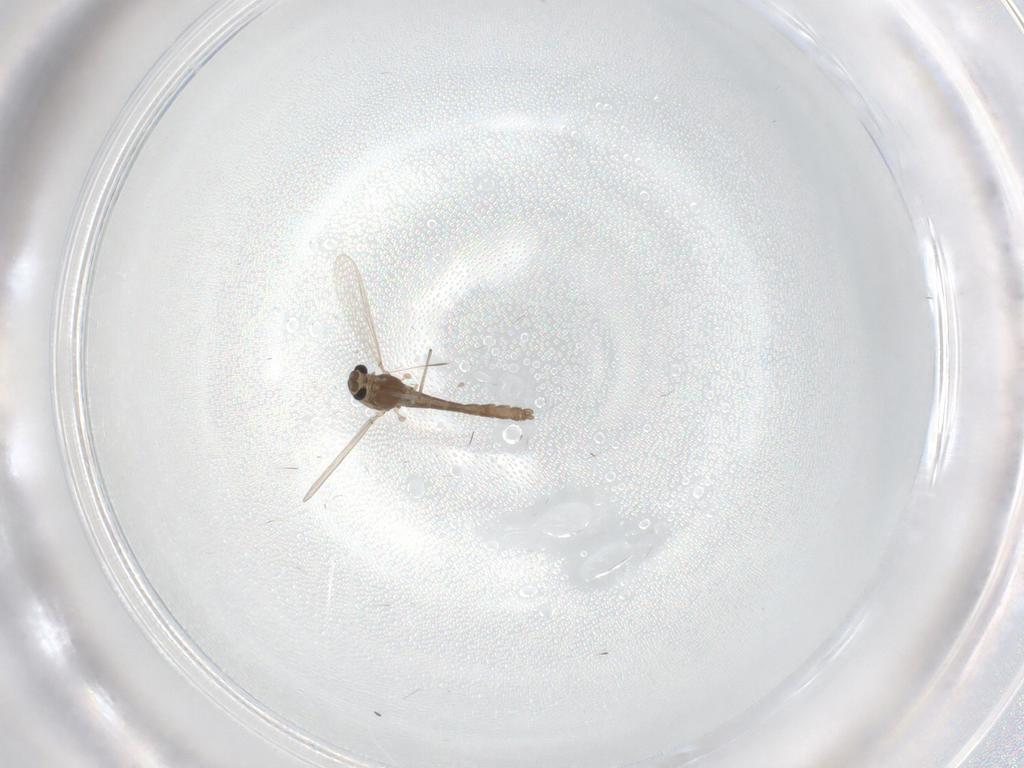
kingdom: Animalia
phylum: Arthropoda
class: Insecta
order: Diptera
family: Chironomidae
